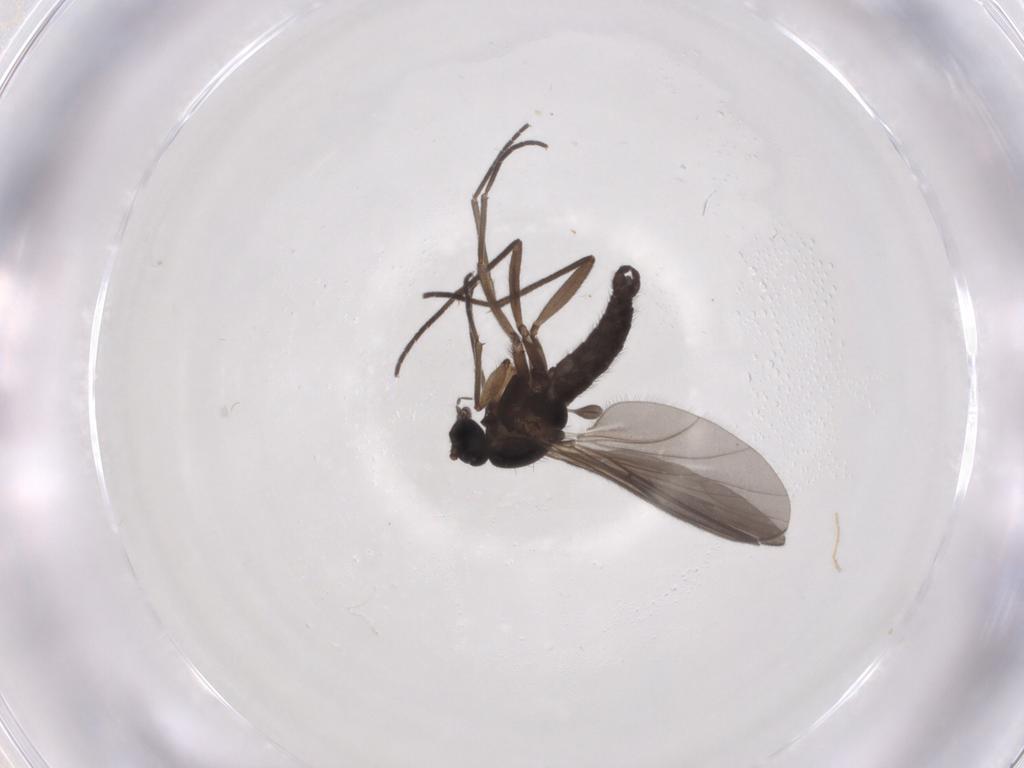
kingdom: Animalia
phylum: Arthropoda
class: Insecta
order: Diptera
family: Sciaridae
